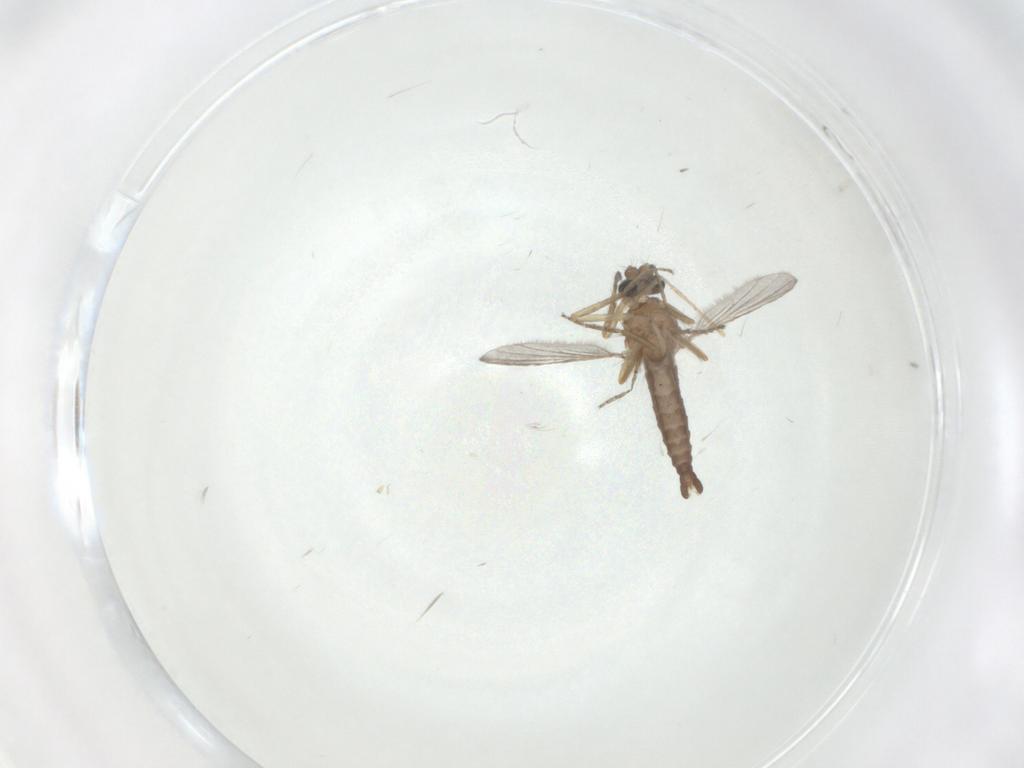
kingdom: Animalia
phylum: Arthropoda
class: Insecta
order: Diptera
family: Ceratopogonidae
